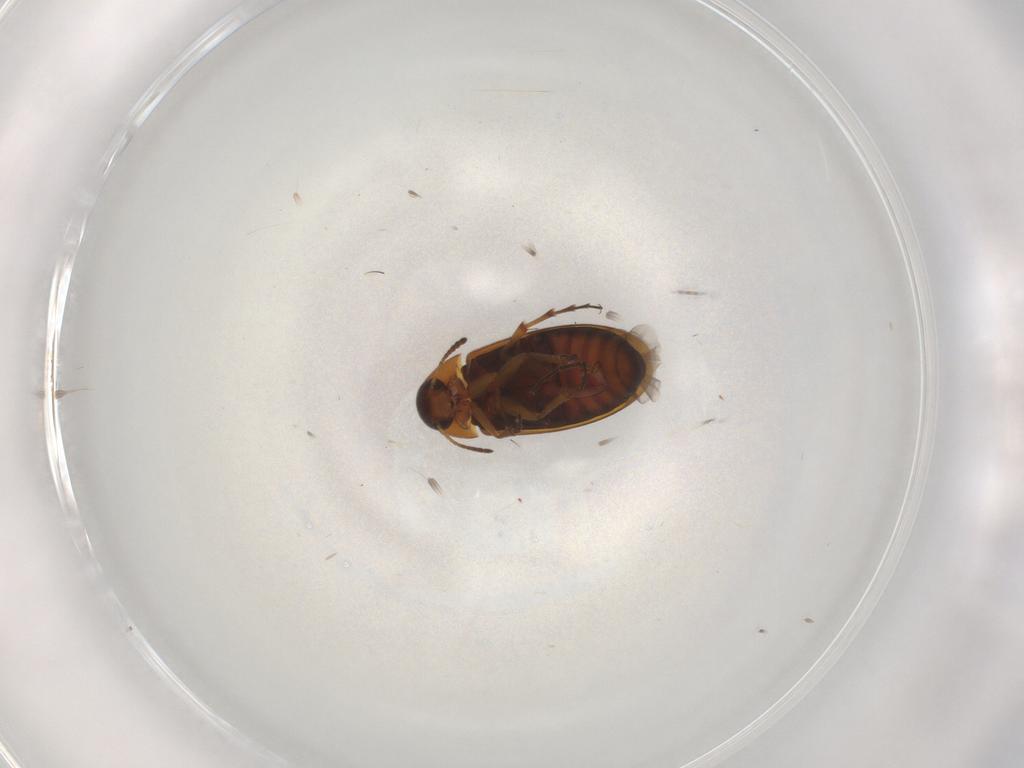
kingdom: Animalia
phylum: Arthropoda
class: Insecta
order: Coleoptera
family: Scraptiidae
